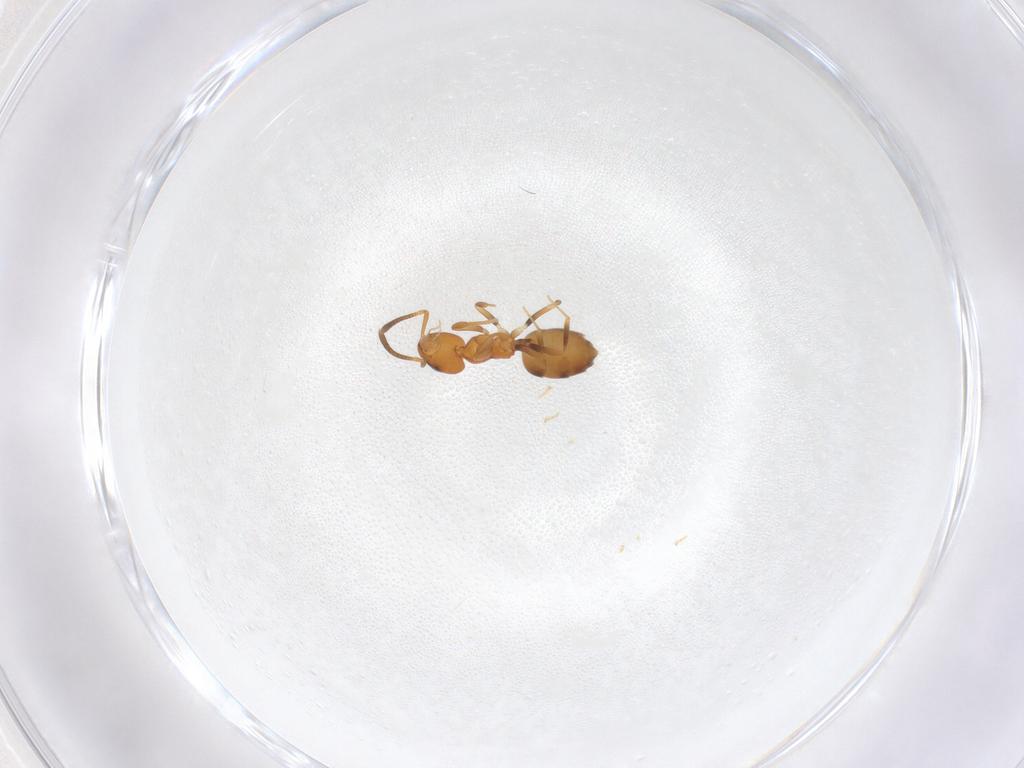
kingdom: Animalia
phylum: Arthropoda
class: Insecta
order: Hymenoptera
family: Formicidae
